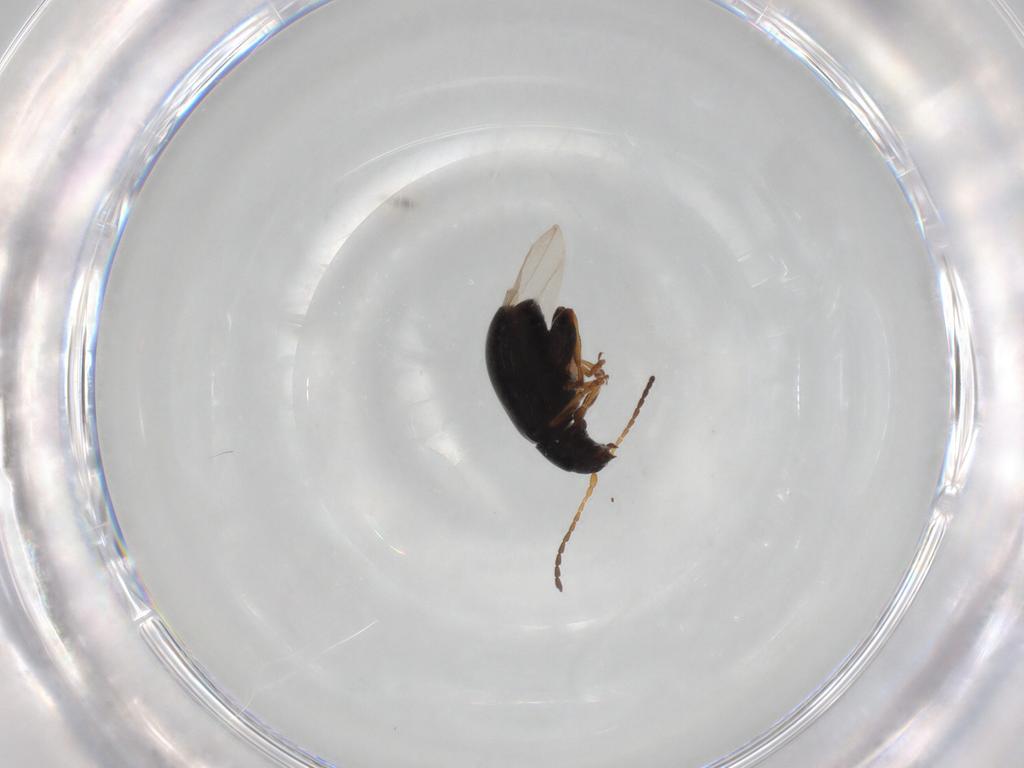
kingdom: Animalia
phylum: Arthropoda
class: Insecta
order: Coleoptera
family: Chrysomelidae
